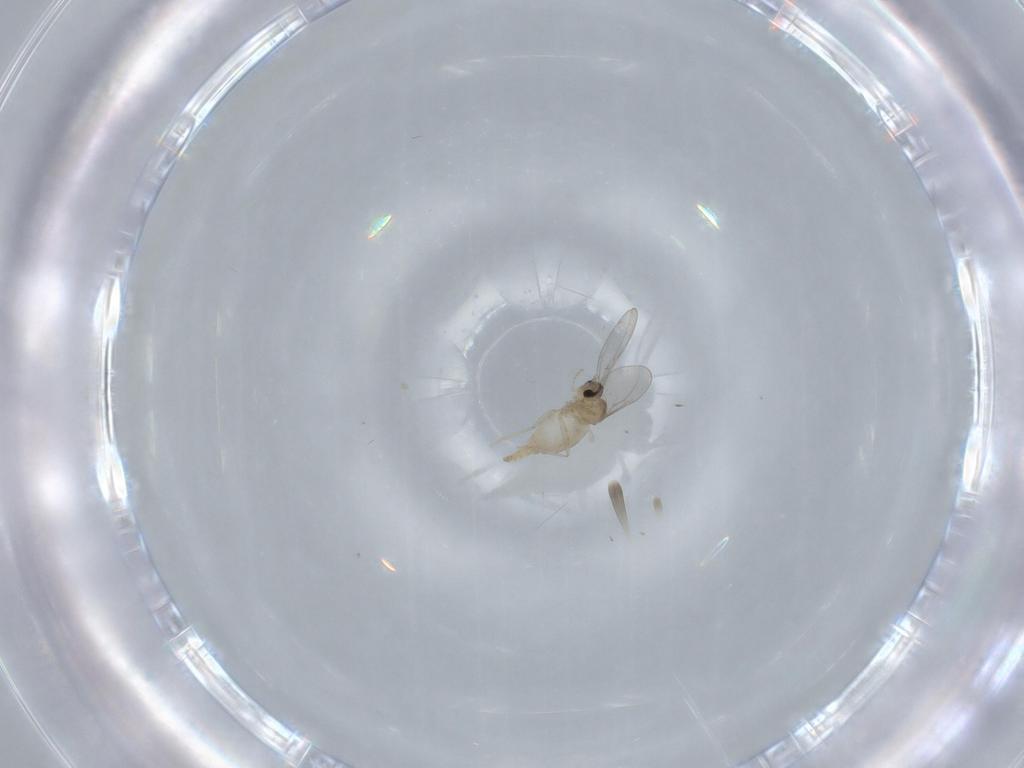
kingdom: Animalia
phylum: Arthropoda
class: Insecta
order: Diptera
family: Cecidomyiidae
